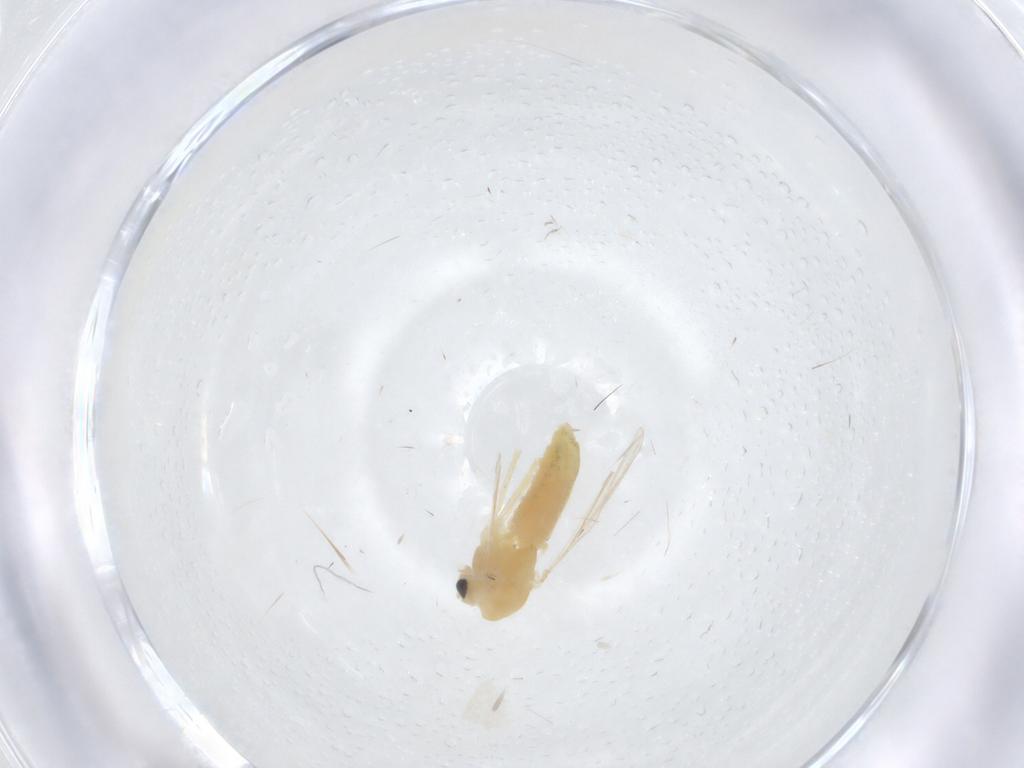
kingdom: Animalia
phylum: Arthropoda
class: Insecta
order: Diptera
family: Chironomidae
